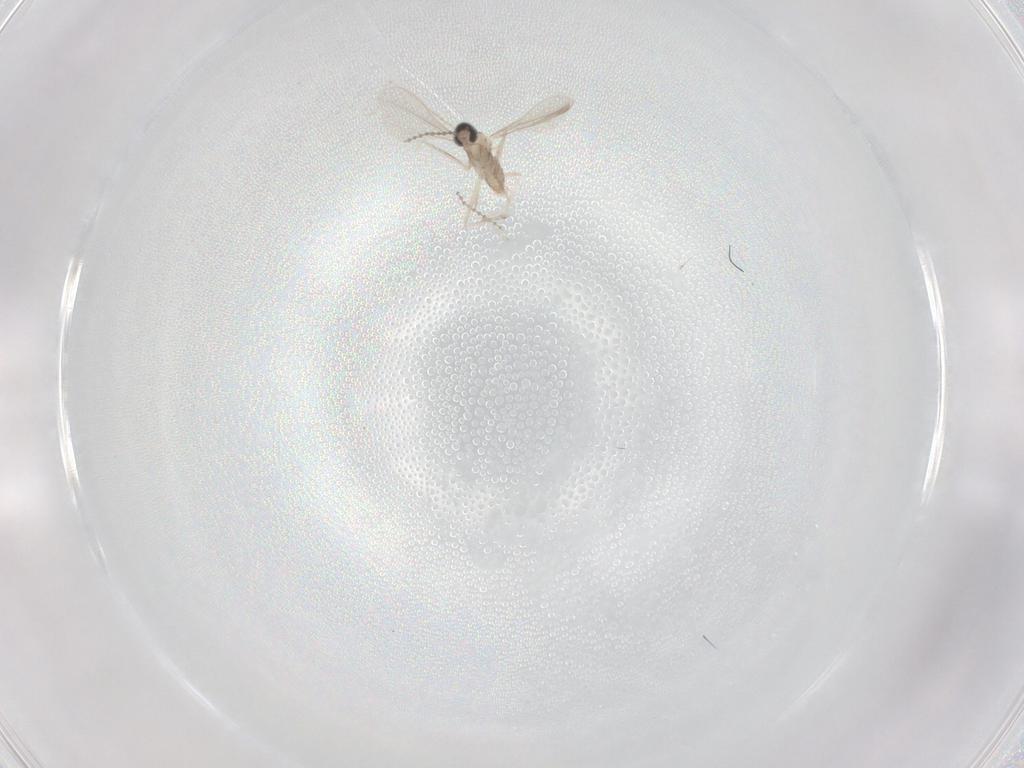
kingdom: Animalia
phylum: Arthropoda
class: Insecta
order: Diptera
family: Cecidomyiidae
